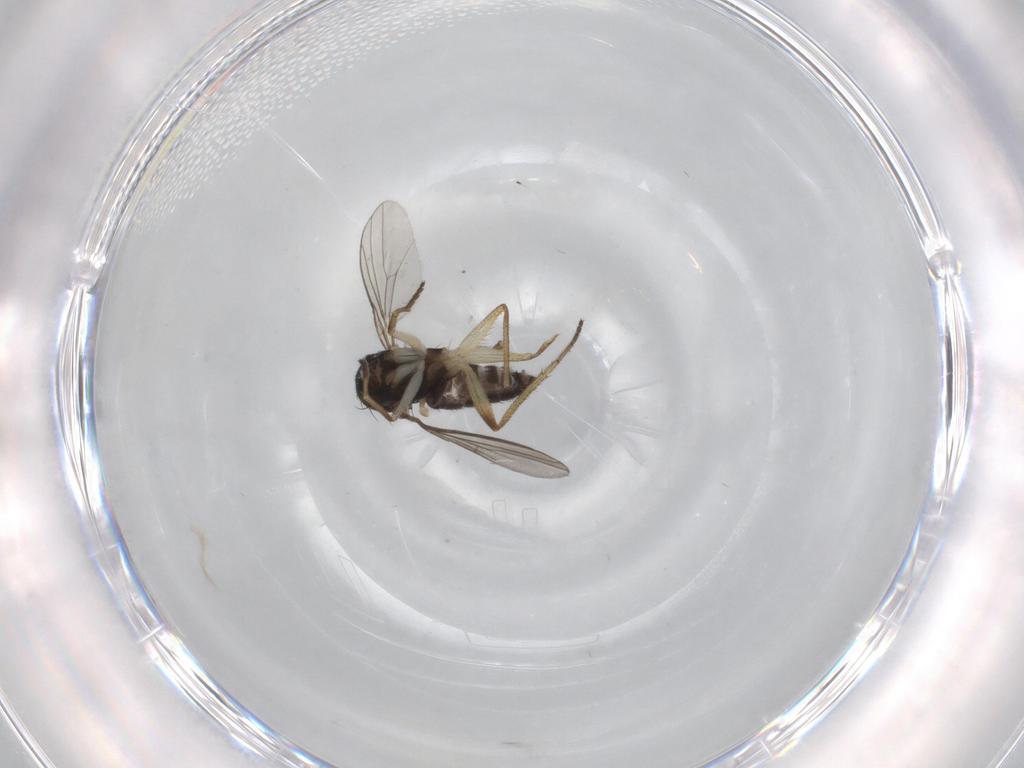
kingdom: Animalia
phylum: Arthropoda
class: Insecta
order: Diptera
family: Dolichopodidae
